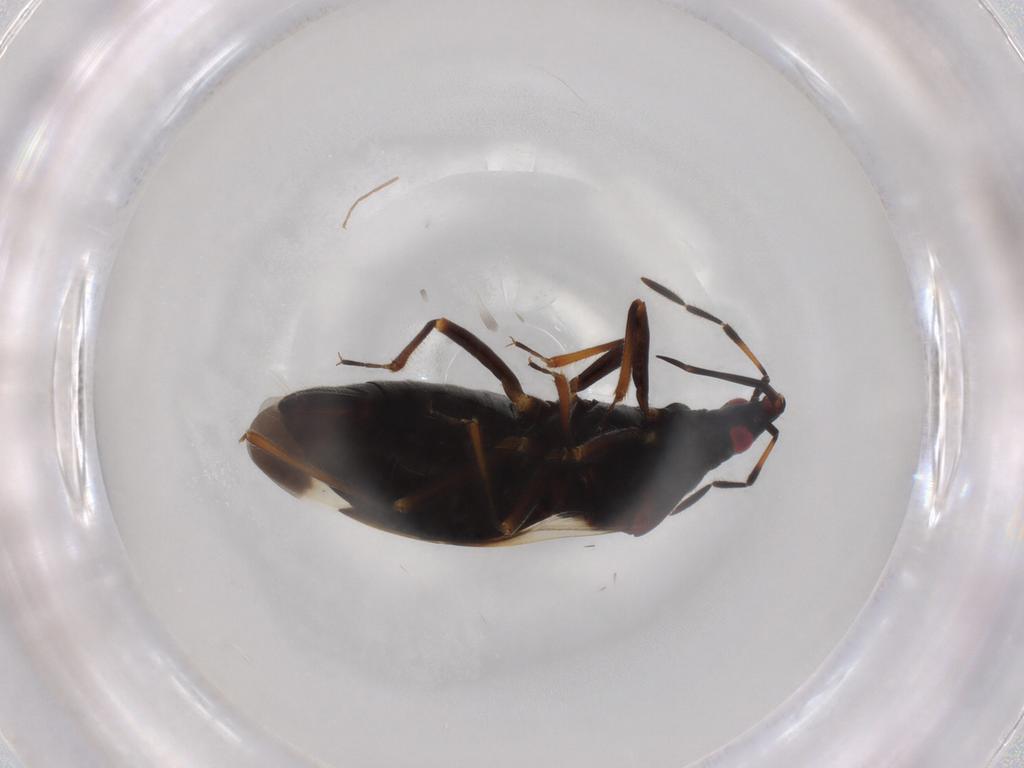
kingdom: Animalia
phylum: Arthropoda
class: Insecta
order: Hemiptera
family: Anthocoridae
